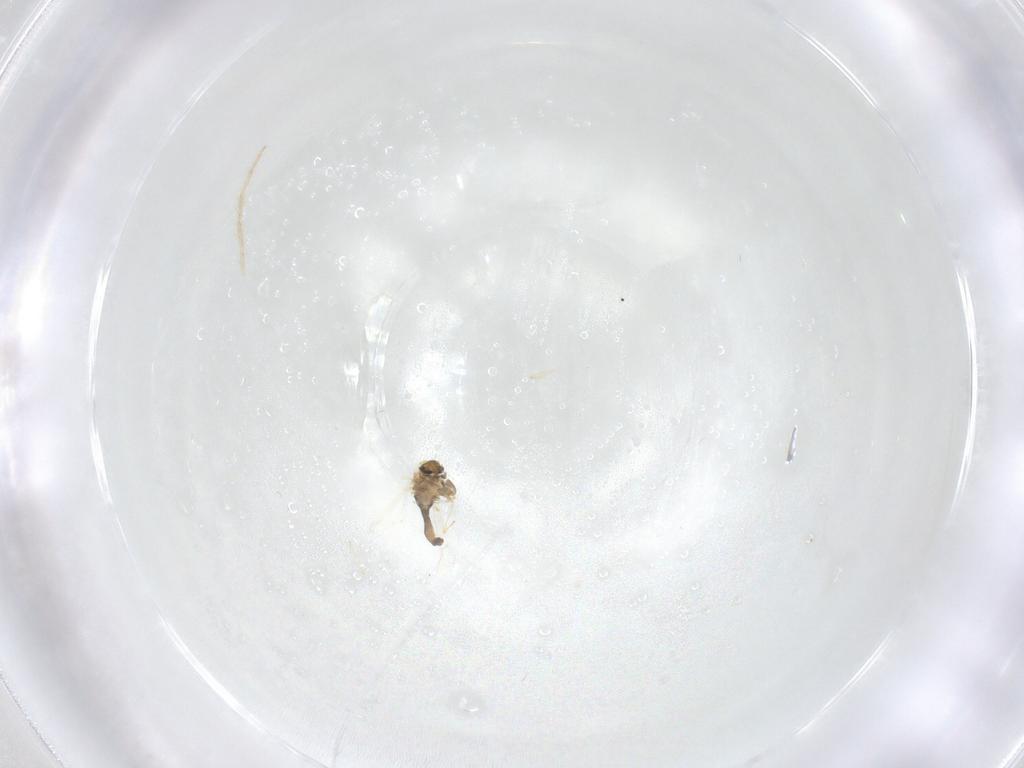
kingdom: Animalia
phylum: Arthropoda
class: Insecta
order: Diptera
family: Chironomidae
